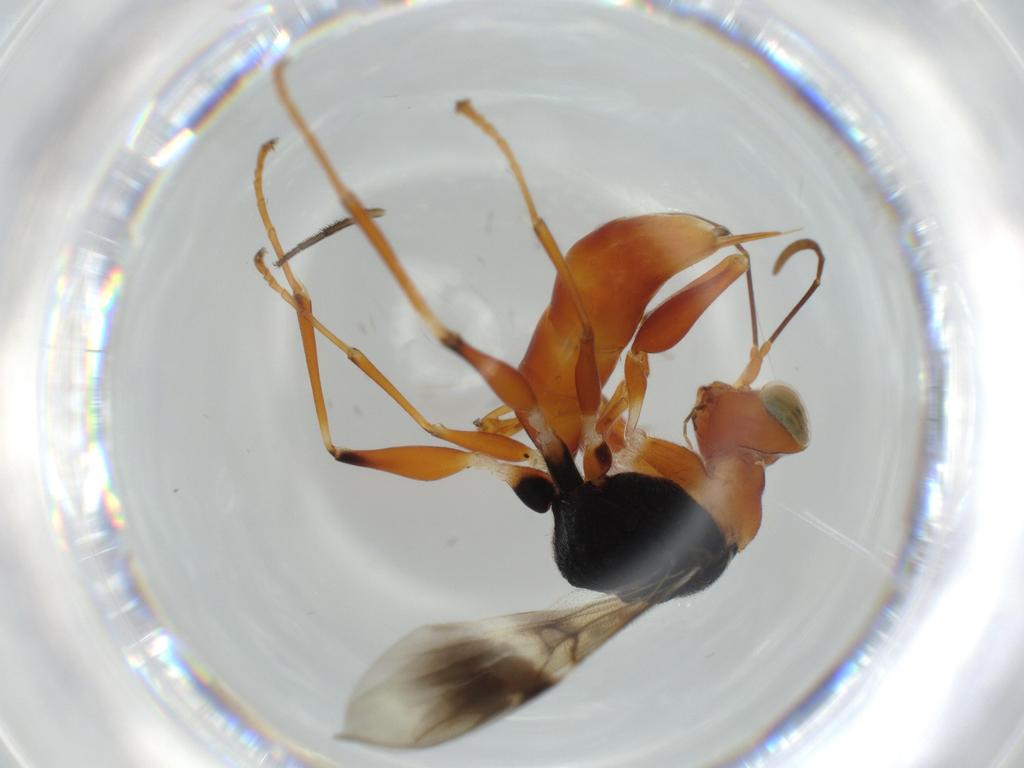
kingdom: Animalia
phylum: Arthropoda
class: Insecta
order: Hymenoptera
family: Dryinidae
